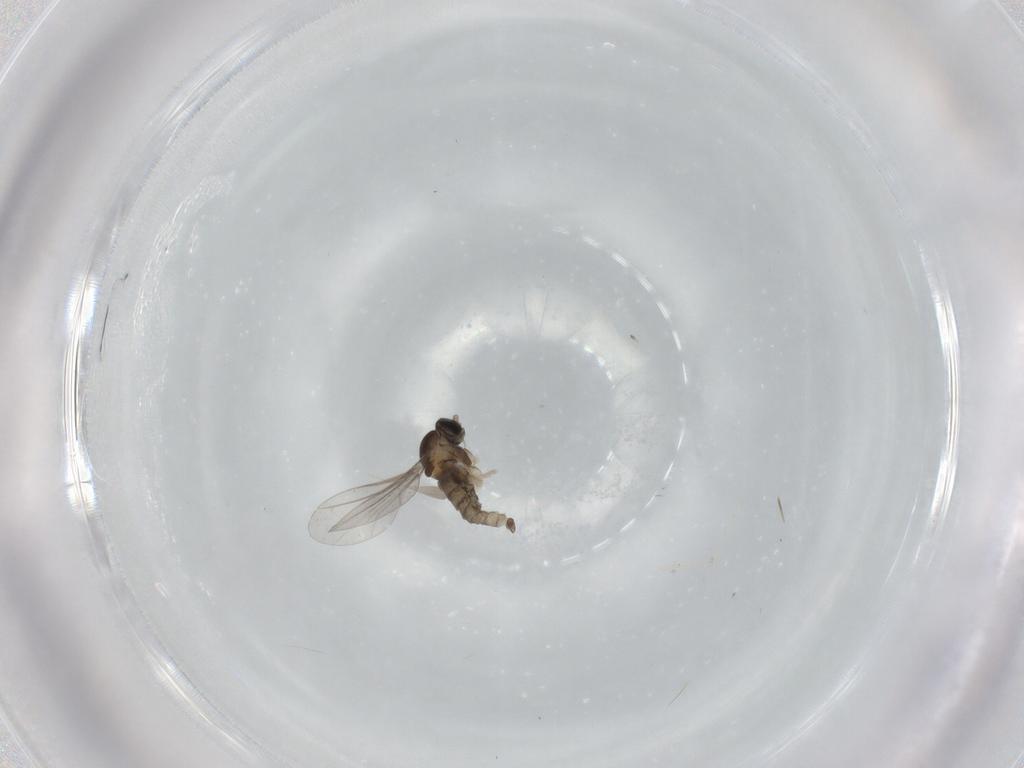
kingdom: Animalia
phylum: Arthropoda
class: Insecta
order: Diptera
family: Cecidomyiidae
